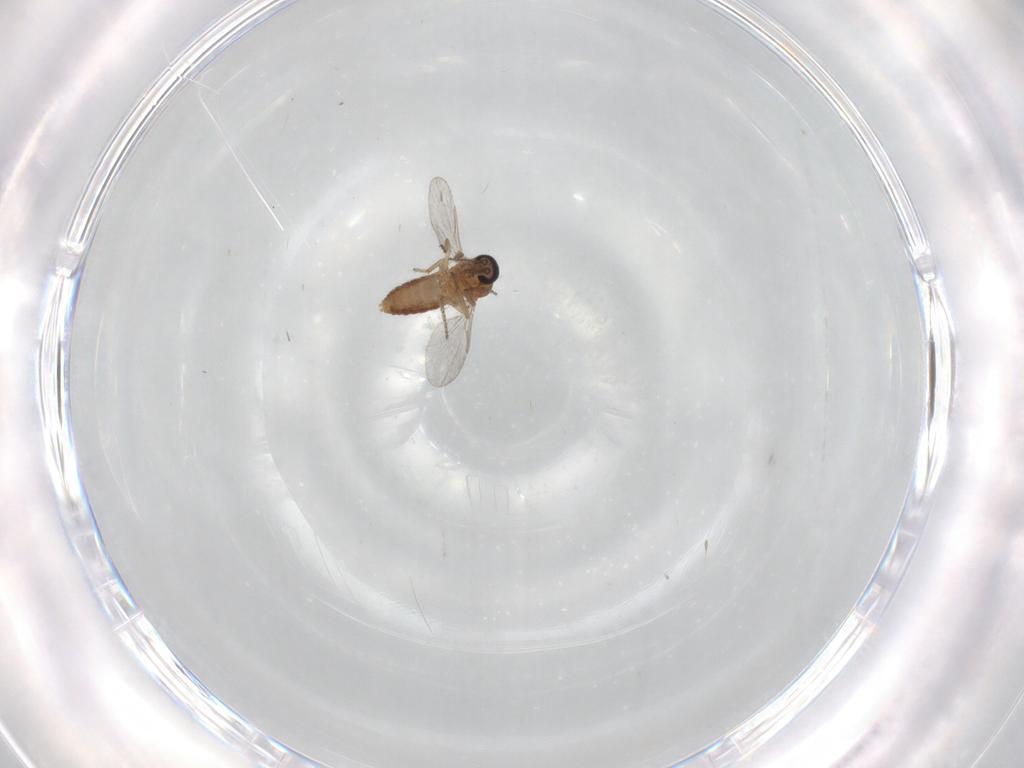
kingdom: Animalia
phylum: Arthropoda
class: Insecta
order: Diptera
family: Ceratopogonidae
